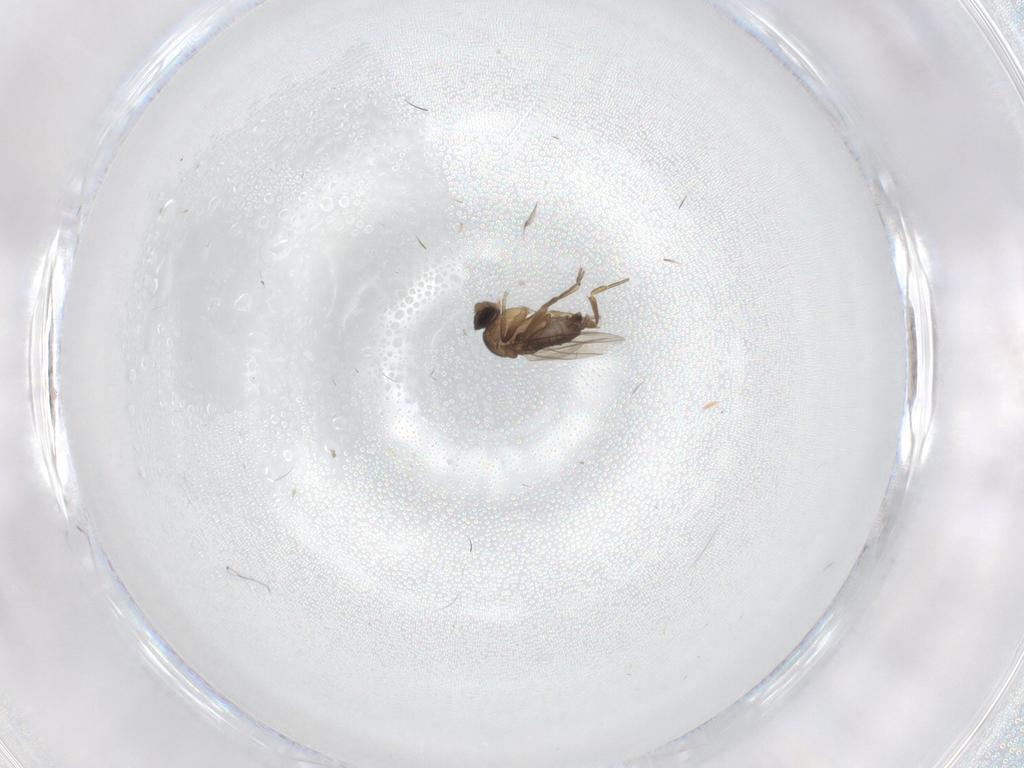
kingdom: Animalia
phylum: Arthropoda
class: Insecta
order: Diptera
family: Phoridae
